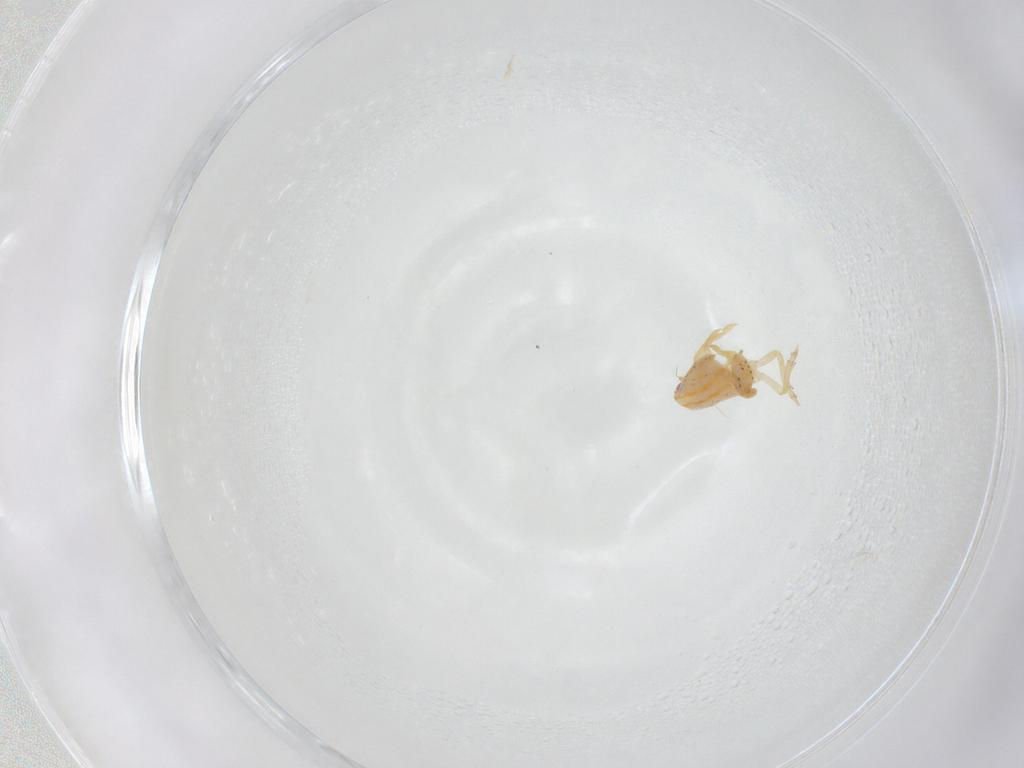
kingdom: Animalia
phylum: Arthropoda
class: Insecta
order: Hemiptera
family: Flatidae
